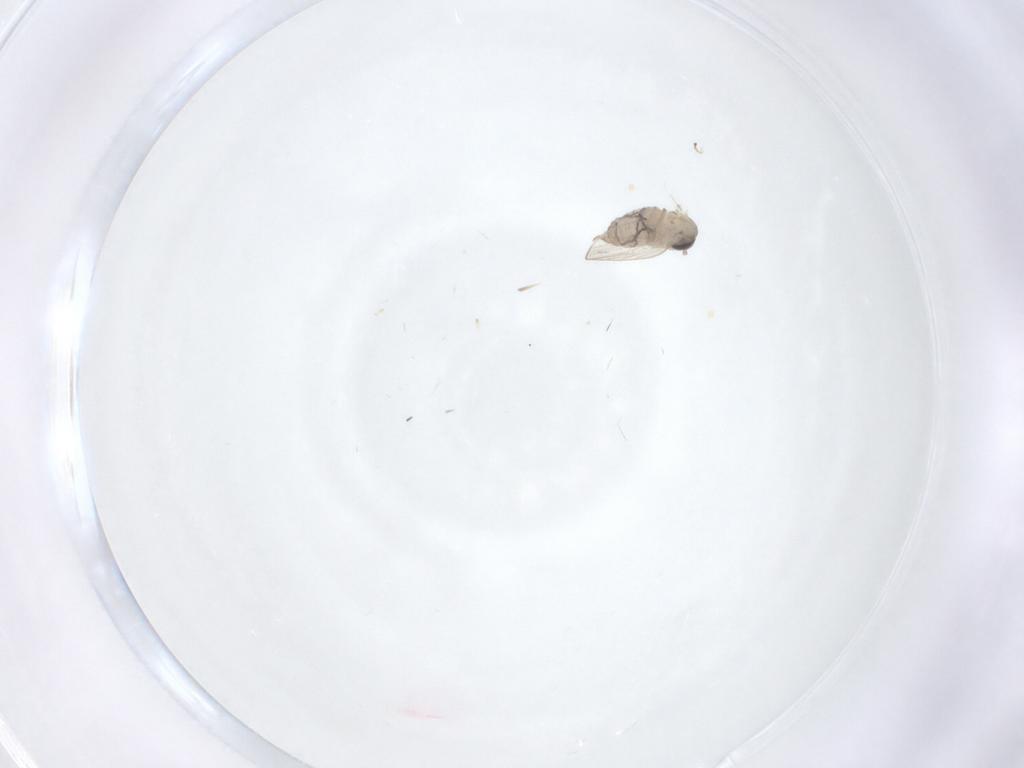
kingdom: Animalia
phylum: Arthropoda
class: Insecta
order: Diptera
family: Psychodidae
